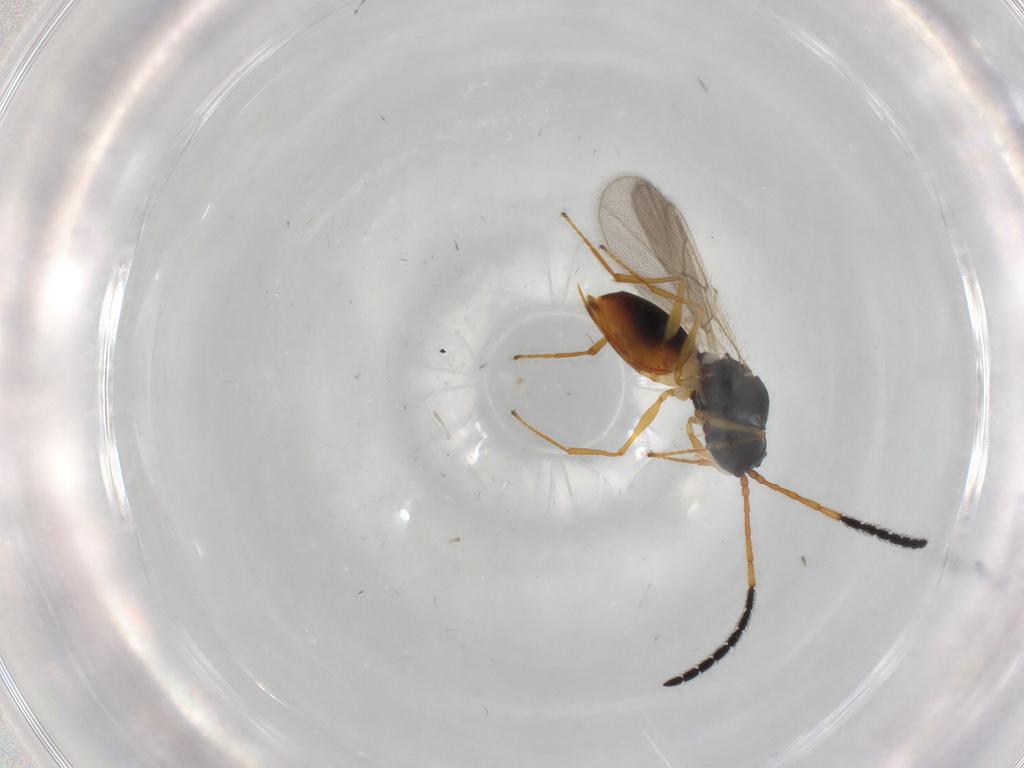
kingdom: Animalia
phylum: Arthropoda
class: Insecta
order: Hymenoptera
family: Figitidae
